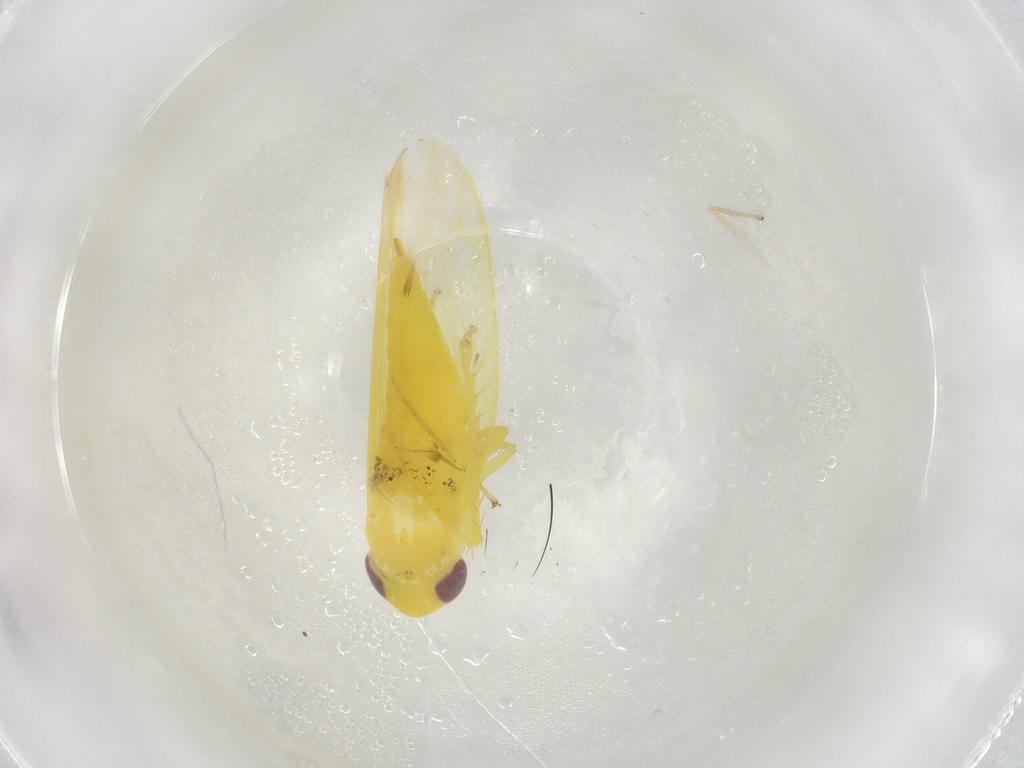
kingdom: Animalia
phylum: Arthropoda
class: Insecta
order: Hemiptera
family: Cicadellidae
